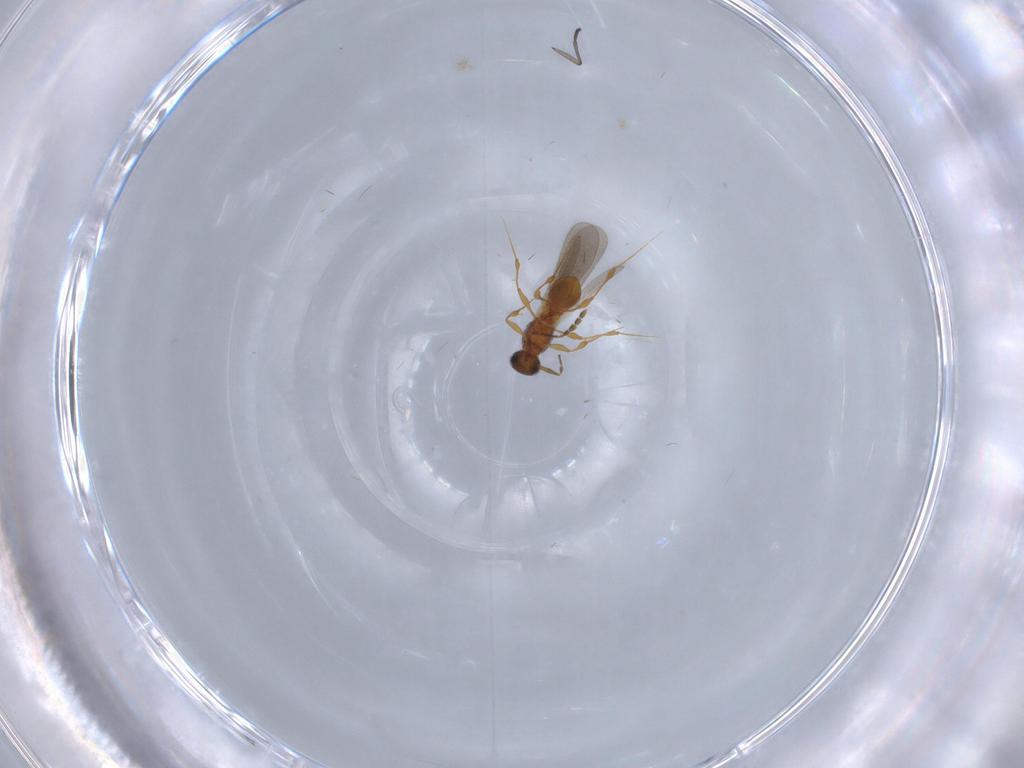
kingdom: Animalia
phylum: Arthropoda
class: Insecta
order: Hymenoptera
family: Platygastridae
